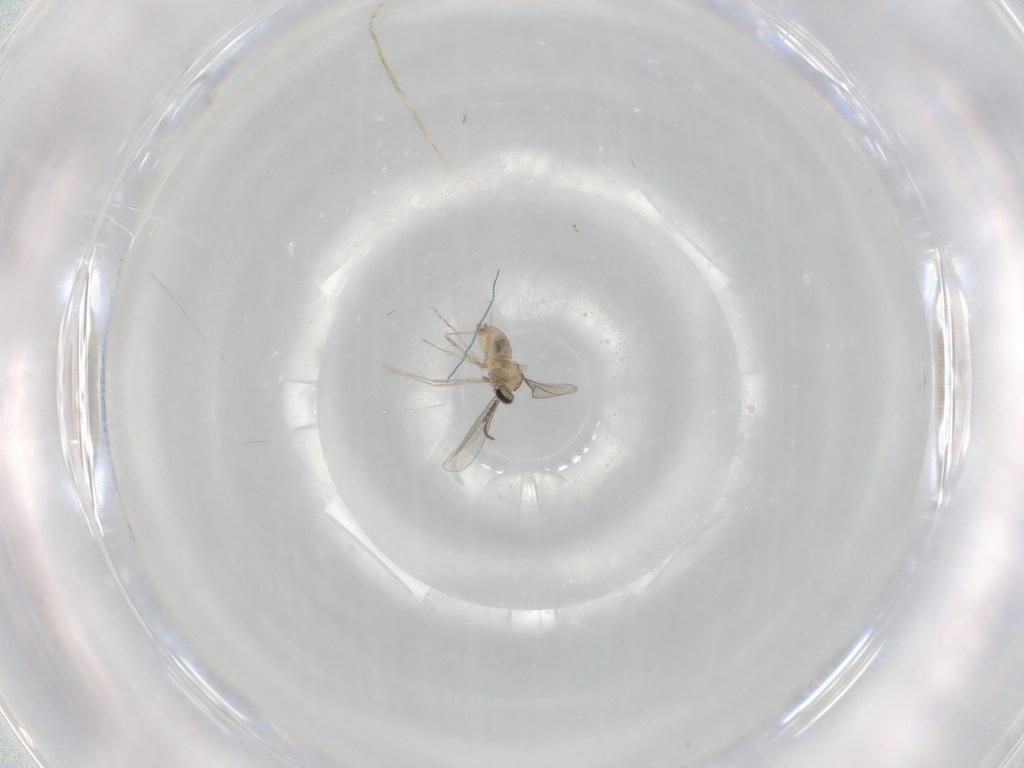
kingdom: Animalia
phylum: Arthropoda
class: Insecta
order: Diptera
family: Cecidomyiidae
